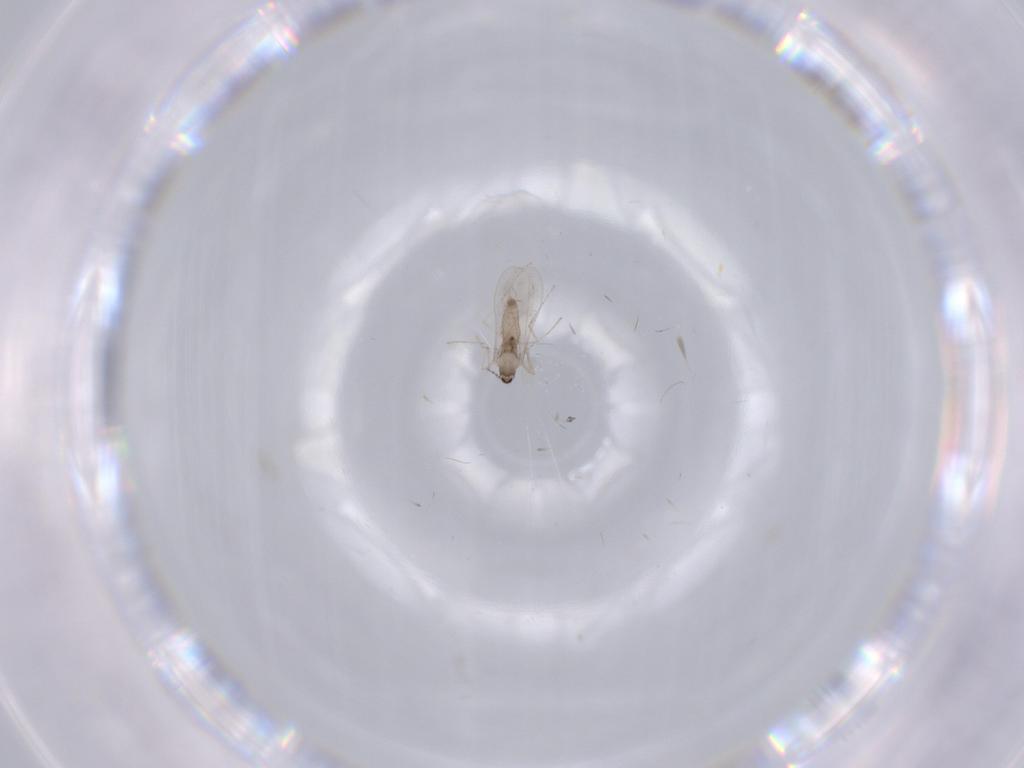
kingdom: Animalia
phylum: Arthropoda
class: Insecta
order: Diptera
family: Cecidomyiidae
